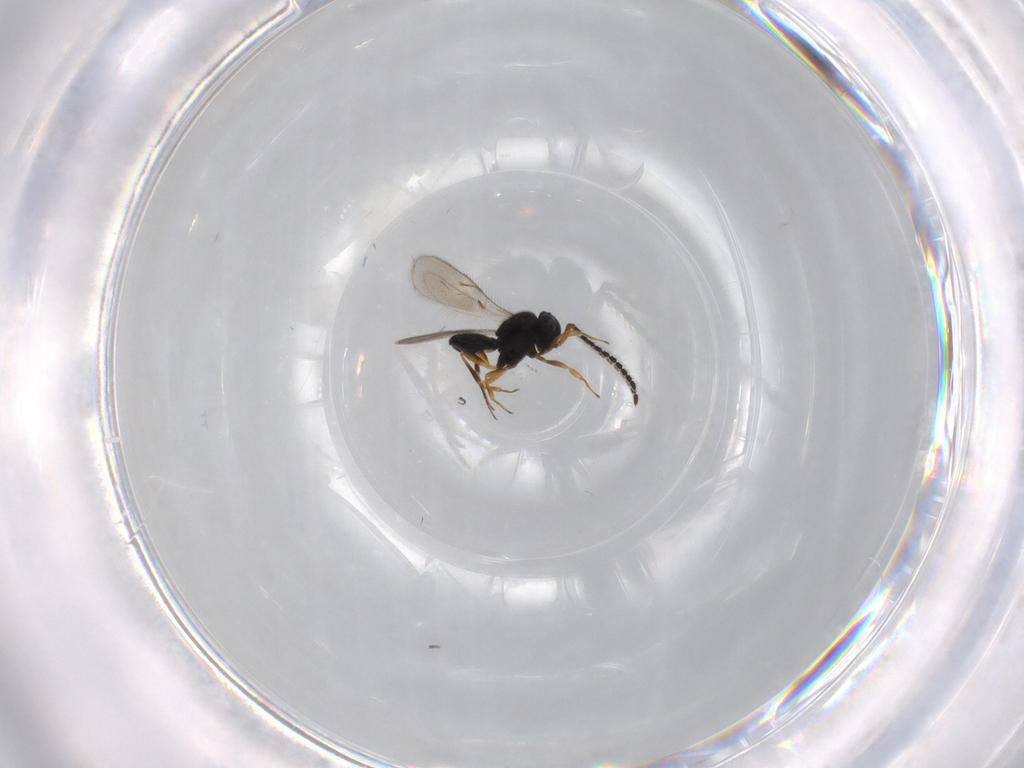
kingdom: Animalia
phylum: Arthropoda
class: Insecta
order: Hymenoptera
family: Scelionidae
